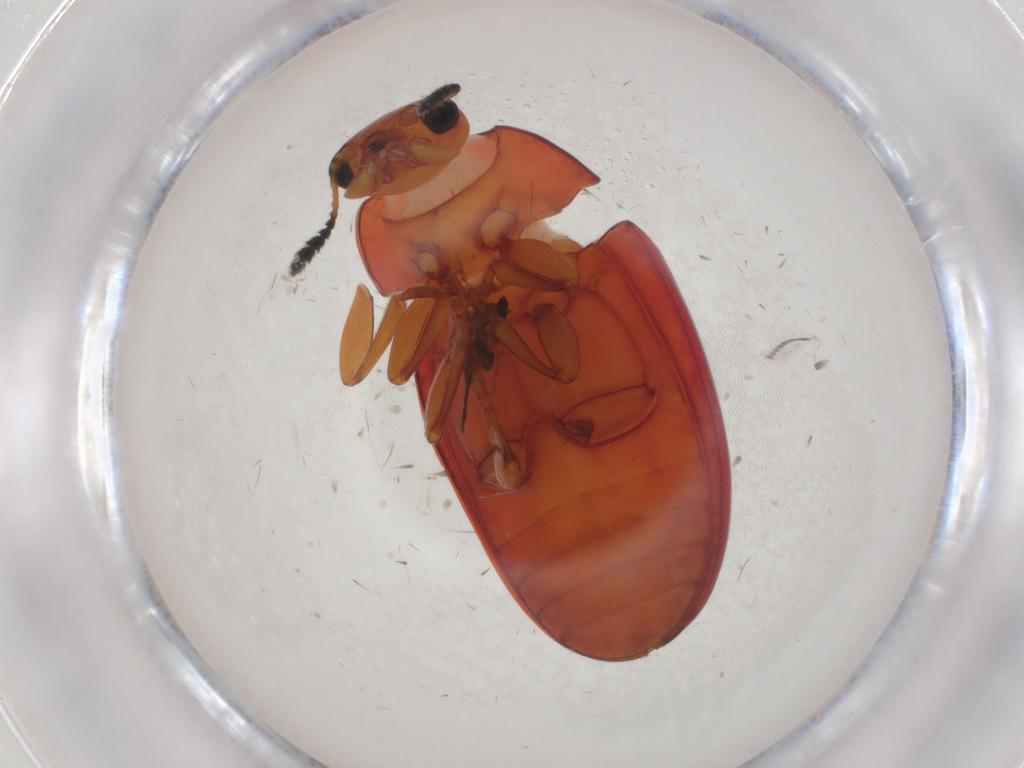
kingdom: Animalia
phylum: Arthropoda
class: Insecta
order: Coleoptera
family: Erotylidae
